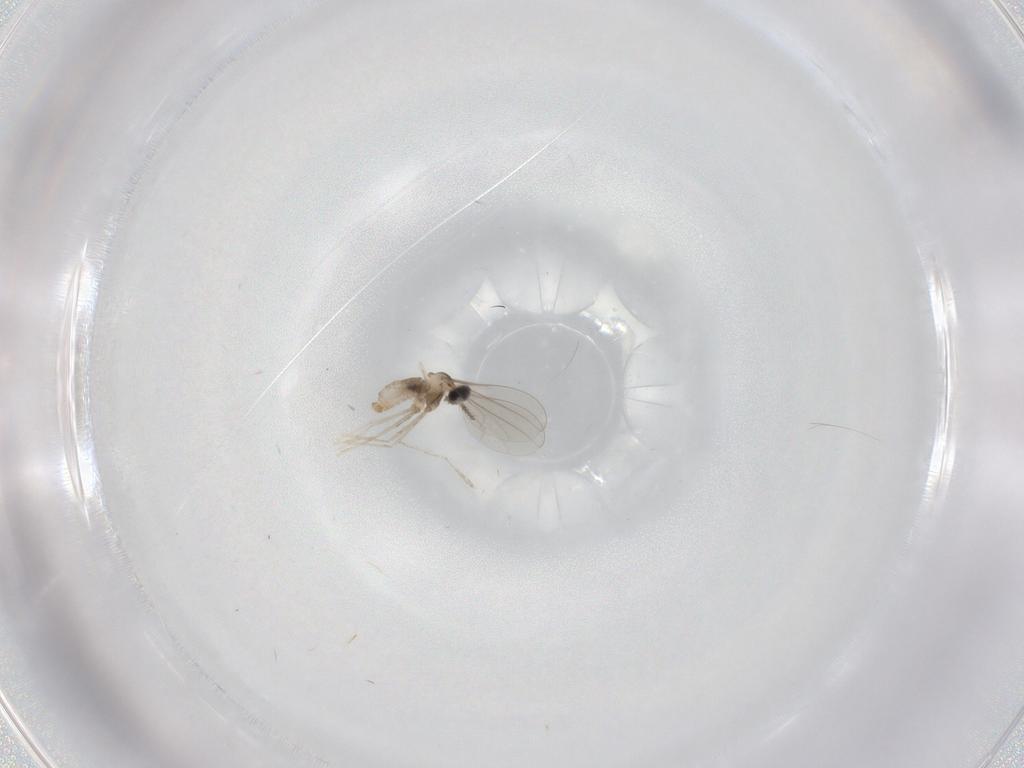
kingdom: Animalia
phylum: Arthropoda
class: Insecta
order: Diptera
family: Cecidomyiidae
